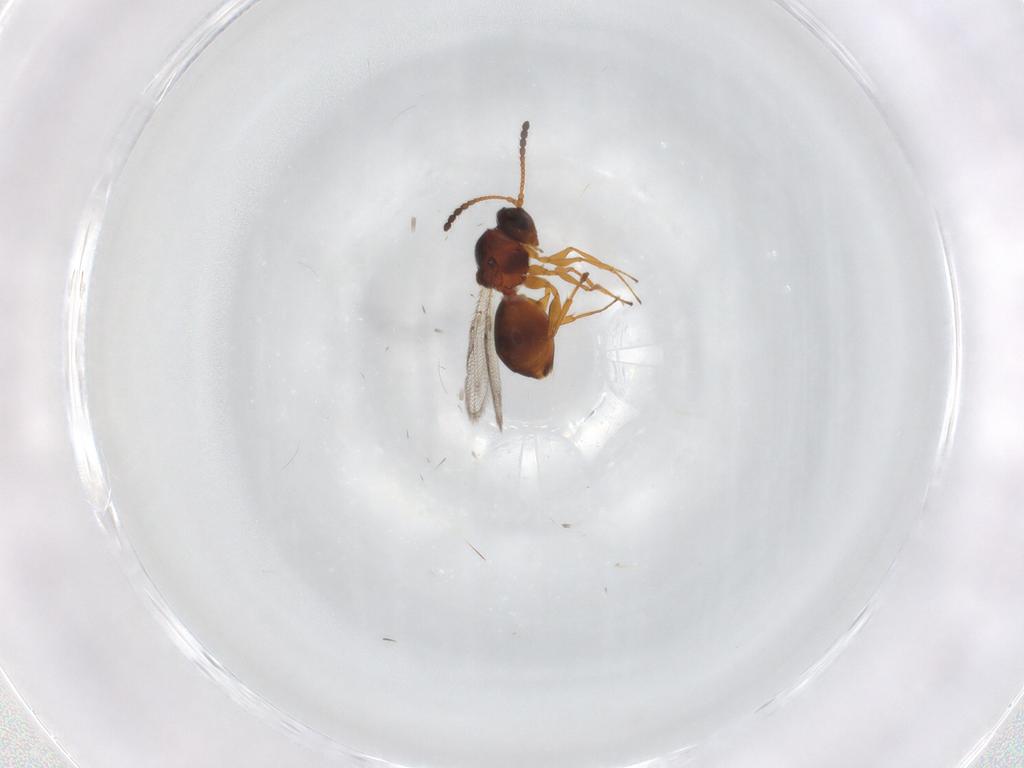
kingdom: Animalia
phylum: Arthropoda
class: Insecta
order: Hymenoptera
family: Figitidae
